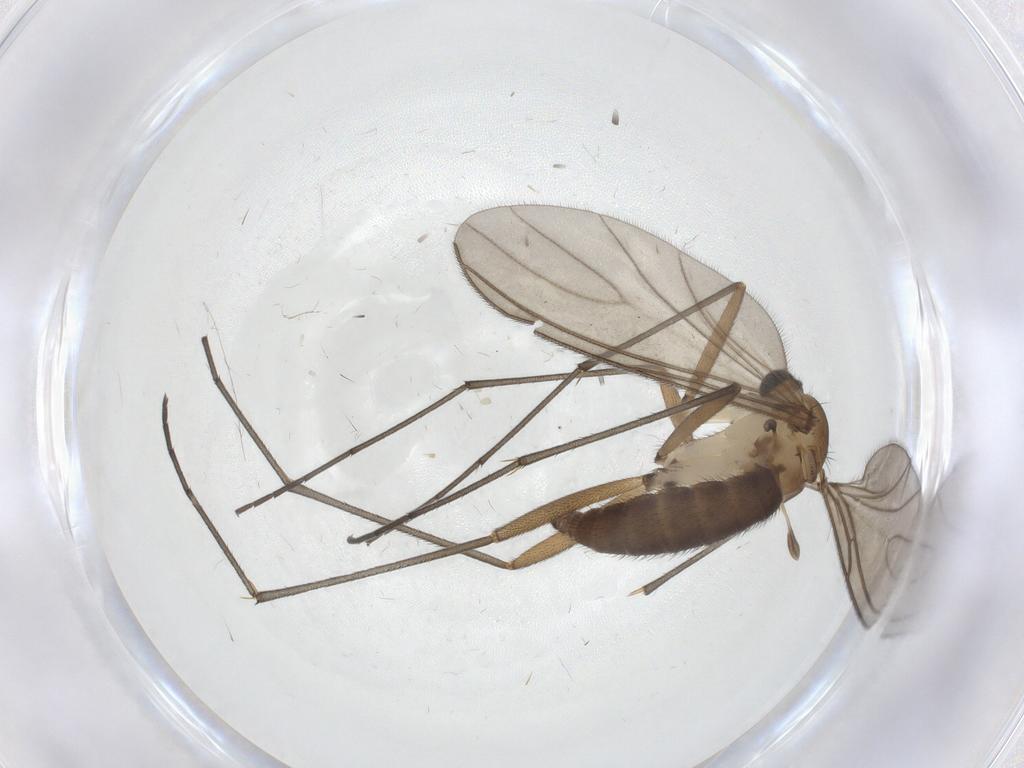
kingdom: Animalia
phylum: Arthropoda
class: Insecta
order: Diptera
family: Sciaridae
